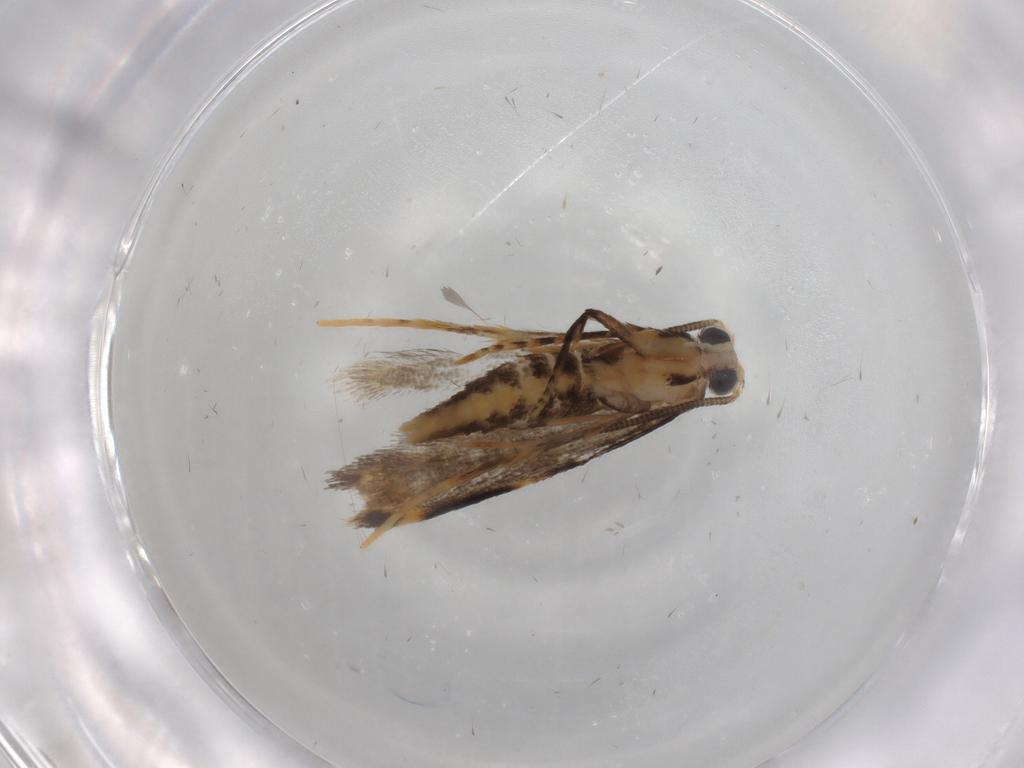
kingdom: Animalia
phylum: Arthropoda
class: Insecta
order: Lepidoptera
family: Tineidae
